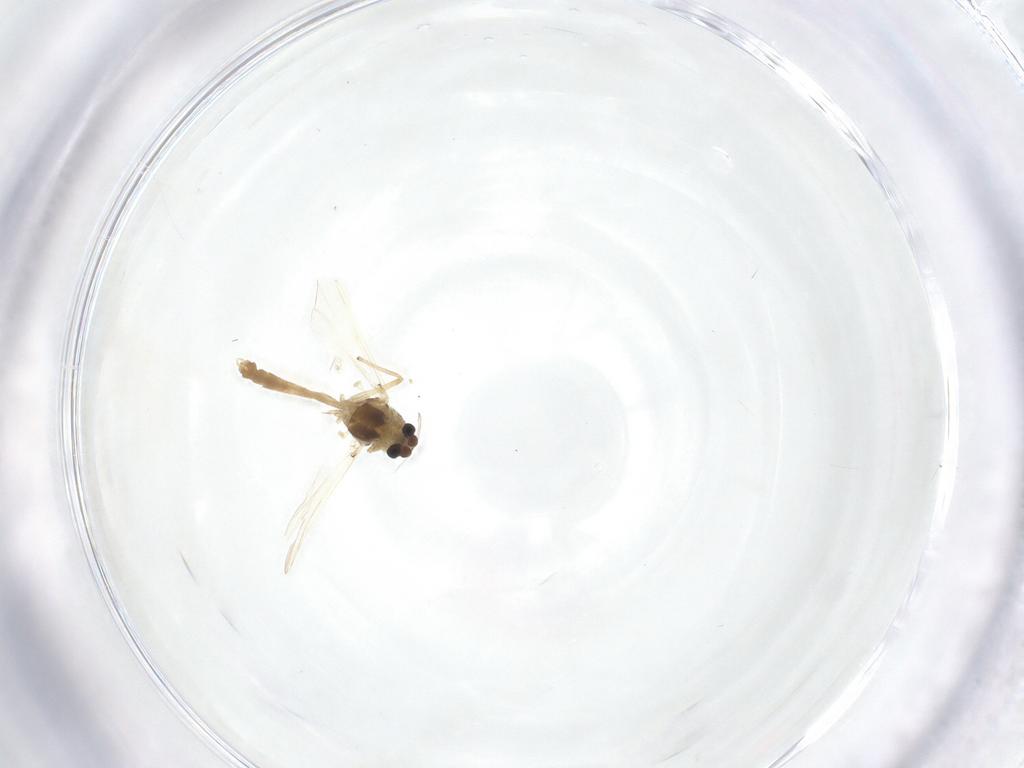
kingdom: Animalia
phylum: Arthropoda
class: Insecta
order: Diptera
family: Chironomidae
